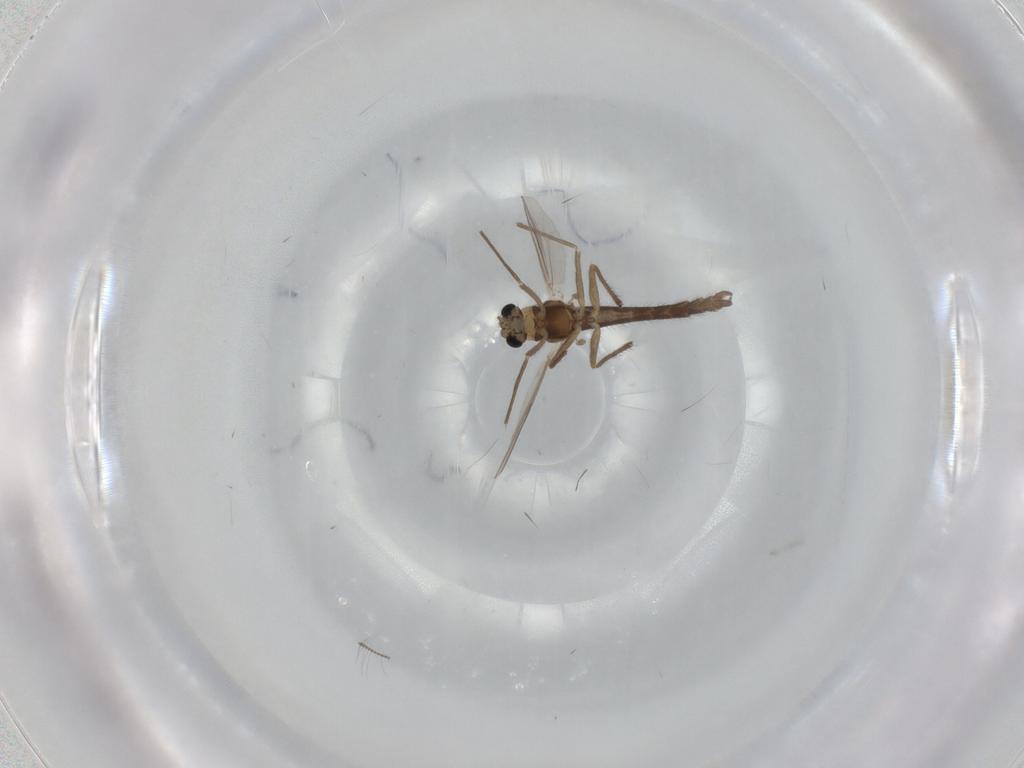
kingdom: Animalia
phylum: Arthropoda
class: Insecta
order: Diptera
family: Chironomidae
